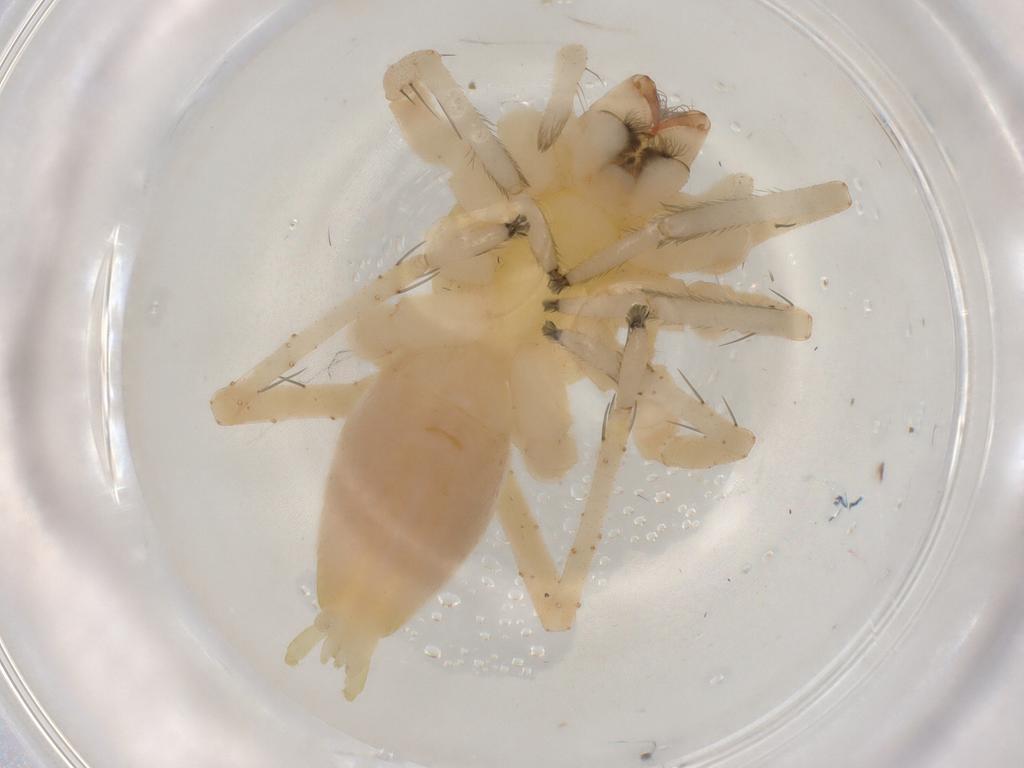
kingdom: Animalia
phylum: Arthropoda
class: Arachnida
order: Araneae
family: Anyphaenidae
